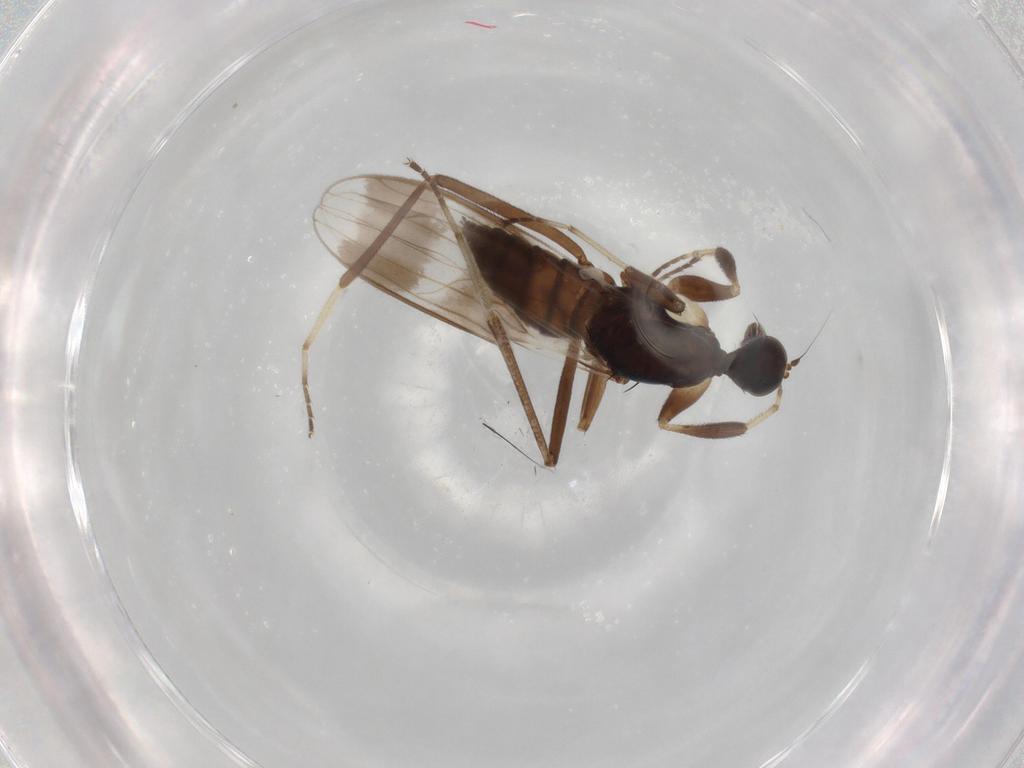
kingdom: Animalia
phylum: Arthropoda
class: Insecta
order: Diptera
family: Hybotidae
